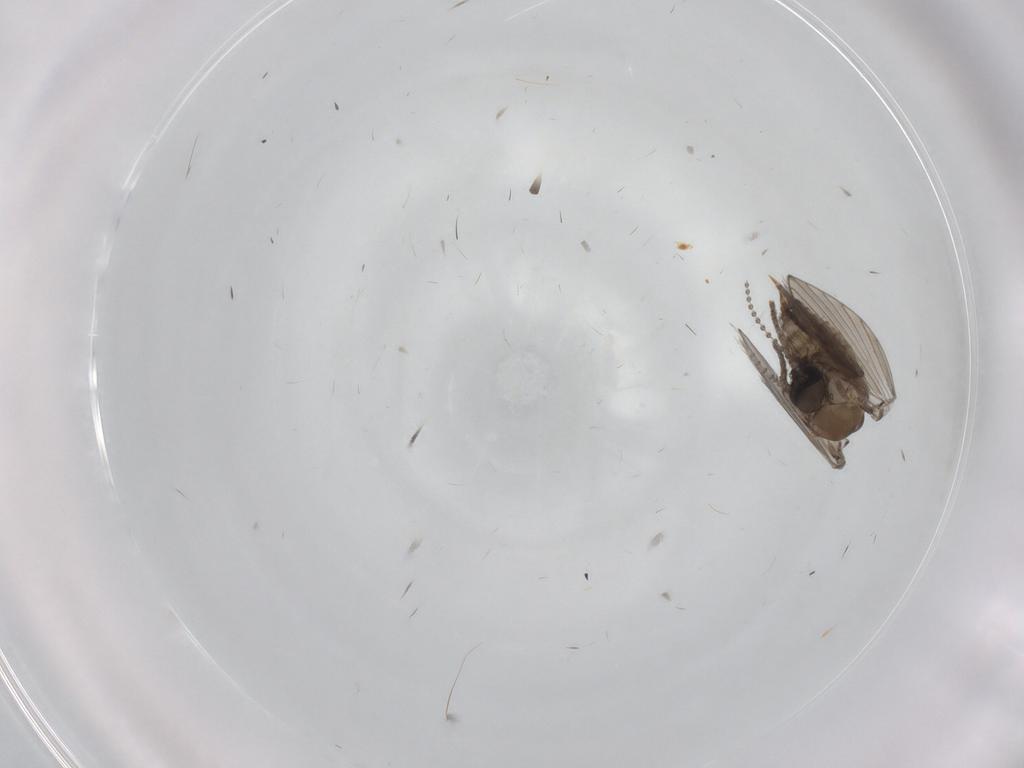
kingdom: Animalia
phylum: Arthropoda
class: Insecta
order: Diptera
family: Psychodidae
